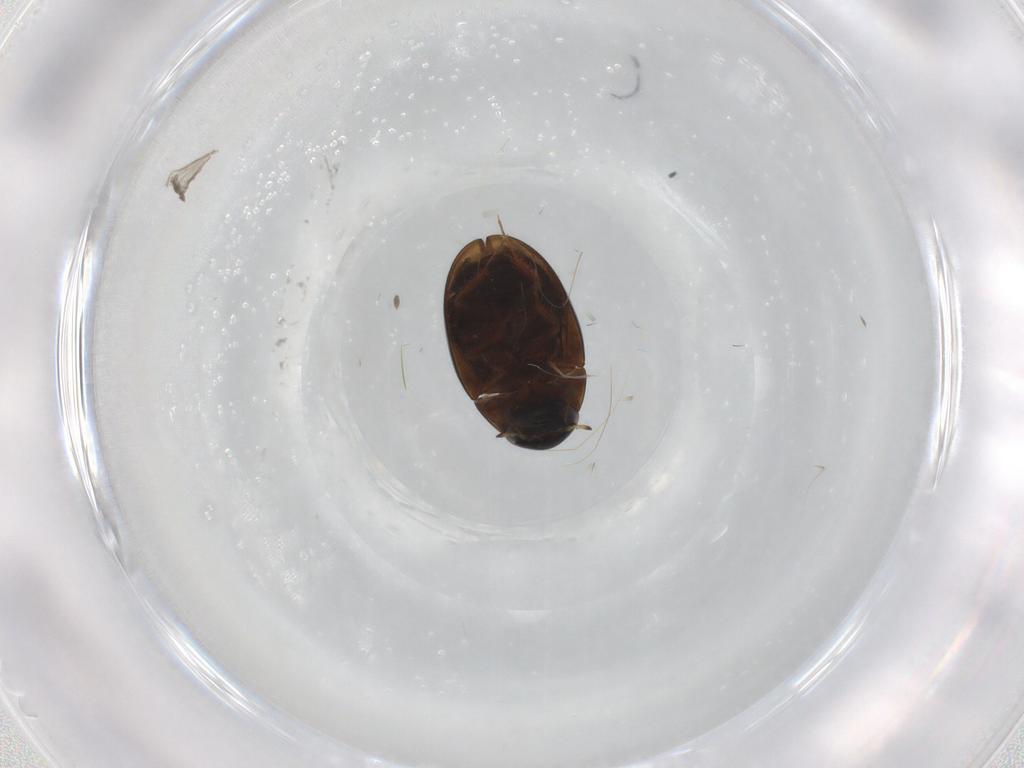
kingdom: Animalia
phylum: Arthropoda
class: Insecta
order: Coleoptera
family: Hydrophilidae
